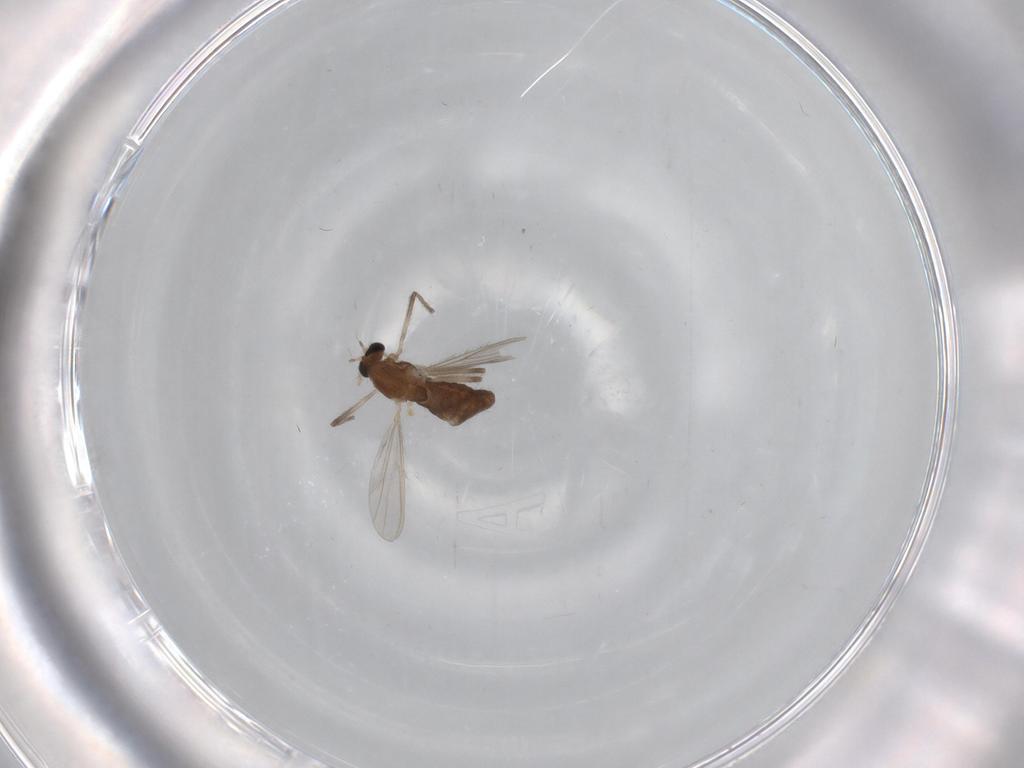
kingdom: Animalia
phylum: Arthropoda
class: Insecta
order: Diptera
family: Chironomidae
